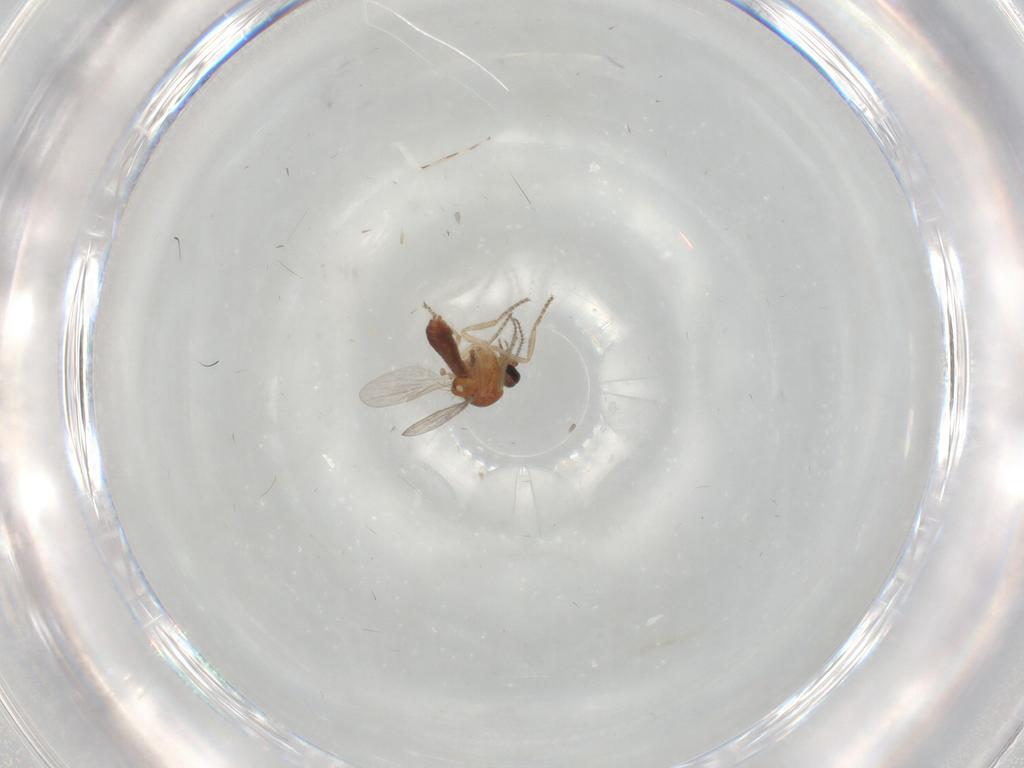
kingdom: Animalia
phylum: Arthropoda
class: Insecta
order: Diptera
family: Ceratopogonidae
